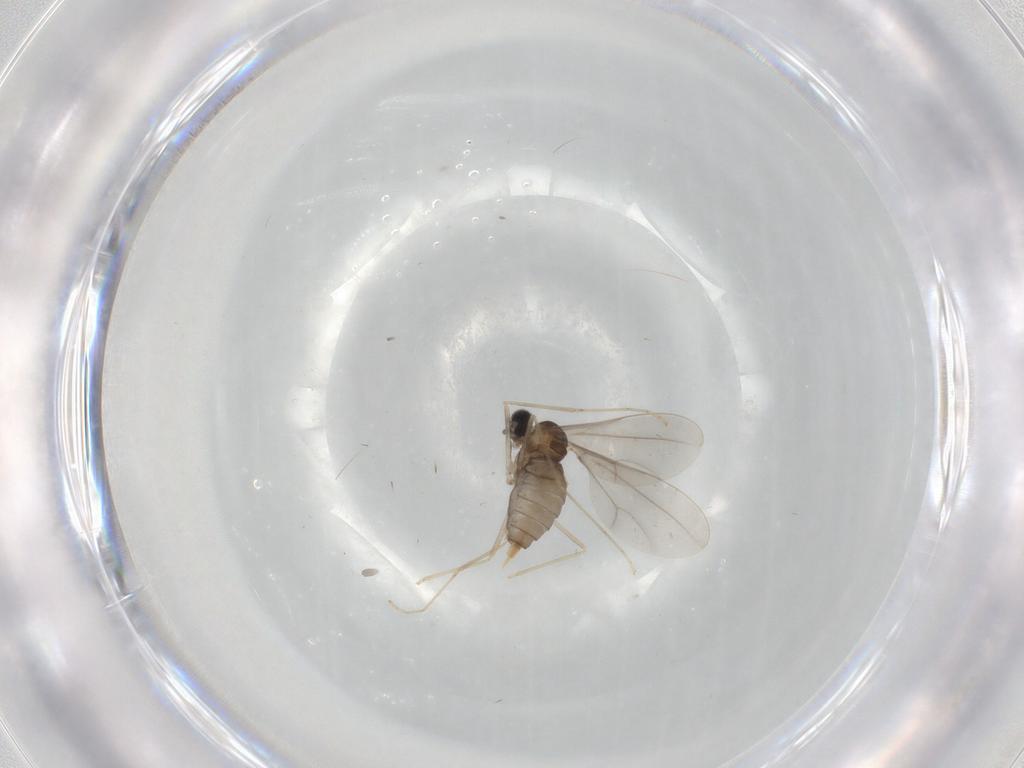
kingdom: Animalia
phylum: Arthropoda
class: Insecta
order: Diptera
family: Cecidomyiidae
